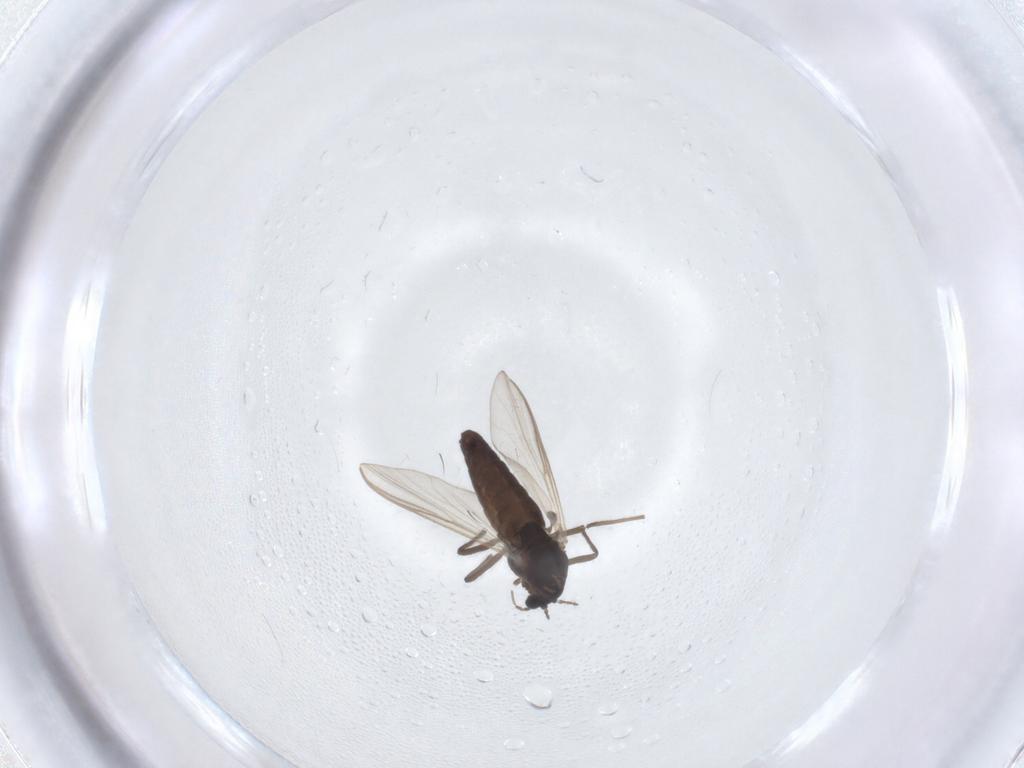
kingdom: Animalia
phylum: Arthropoda
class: Insecta
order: Diptera
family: Chironomidae
